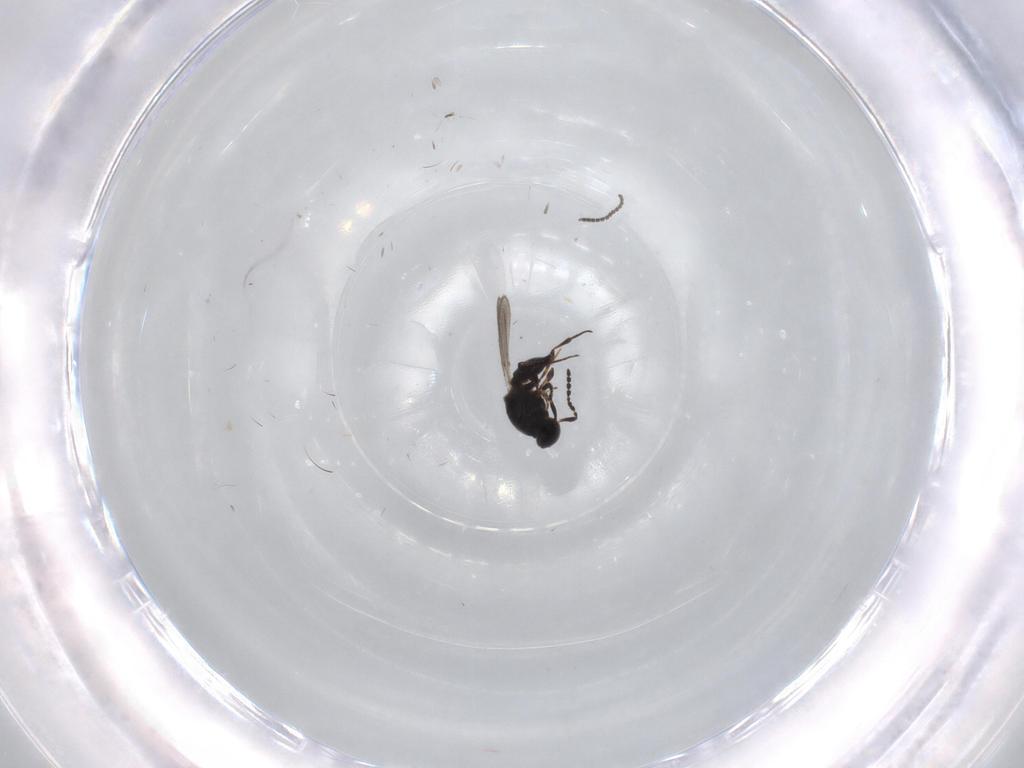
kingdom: Animalia
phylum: Arthropoda
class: Insecta
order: Hymenoptera
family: Platygastridae
